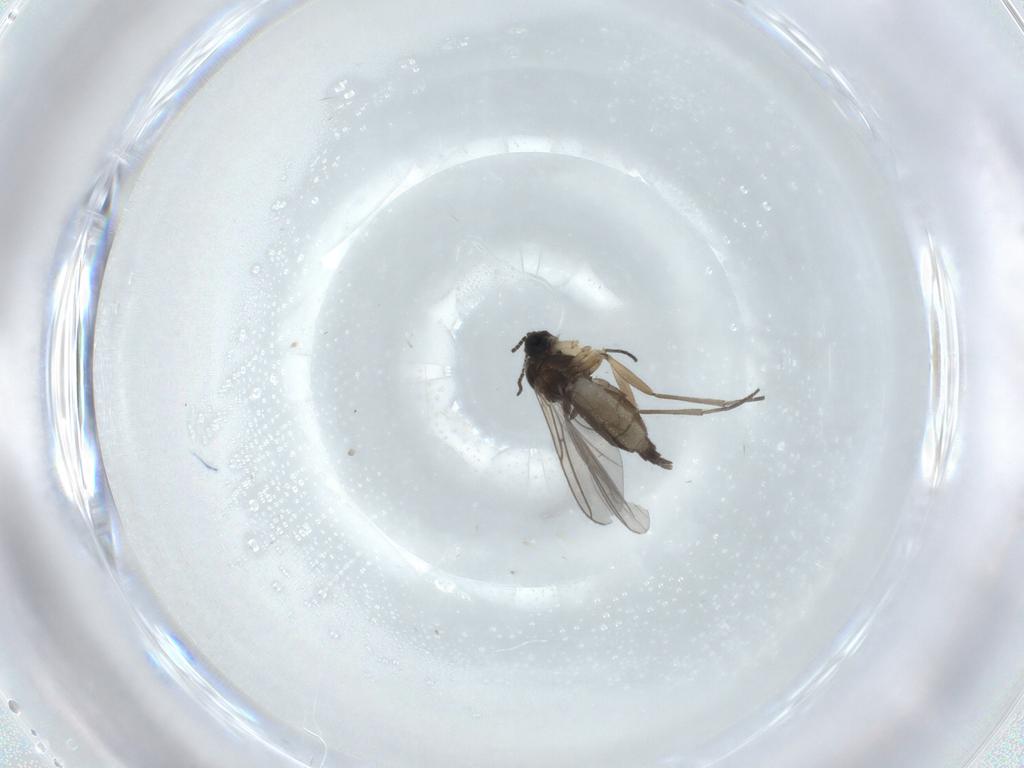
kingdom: Animalia
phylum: Arthropoda
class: Insecta
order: Diptera
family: Sciaridae
